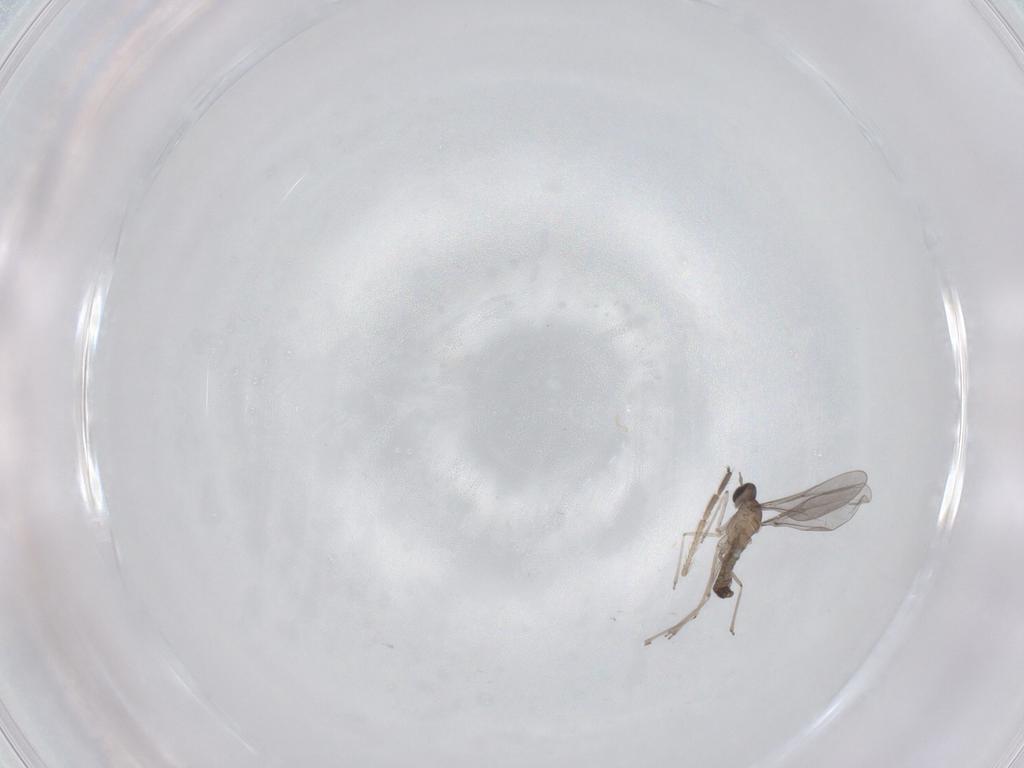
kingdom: Animalia
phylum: Arthropoda
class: Insecta
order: Diptera
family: Cecidomyiidae
